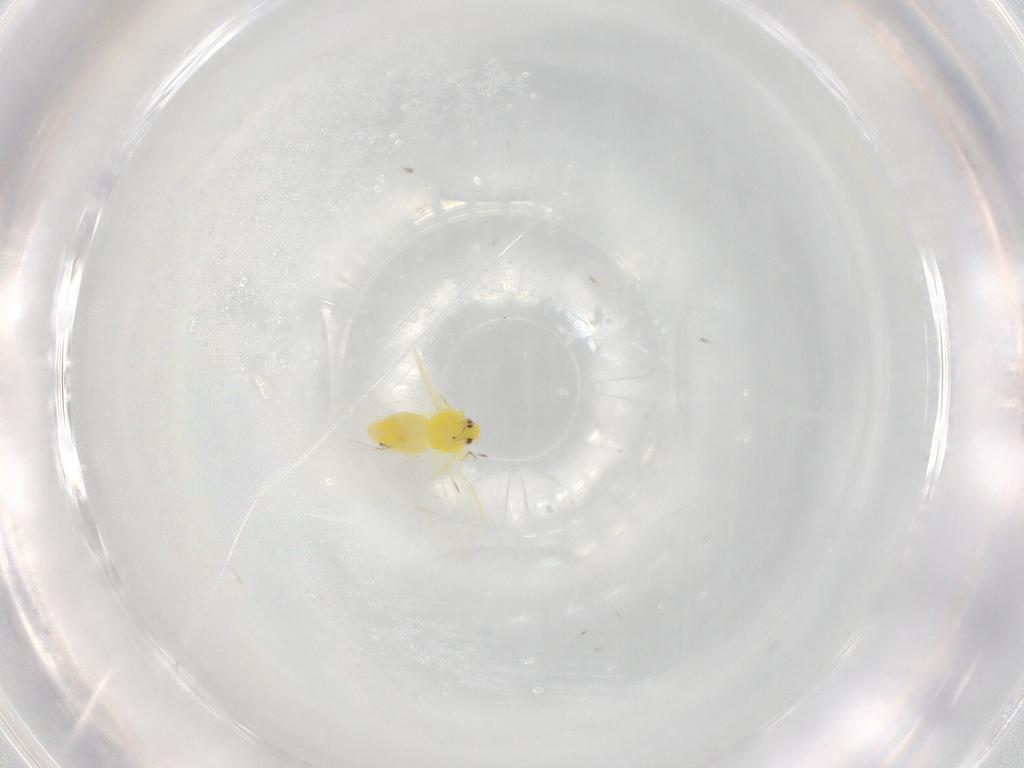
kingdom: Animalia
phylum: Arthropoda
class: Insecta
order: Hemiptera
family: Aleyrodidae
